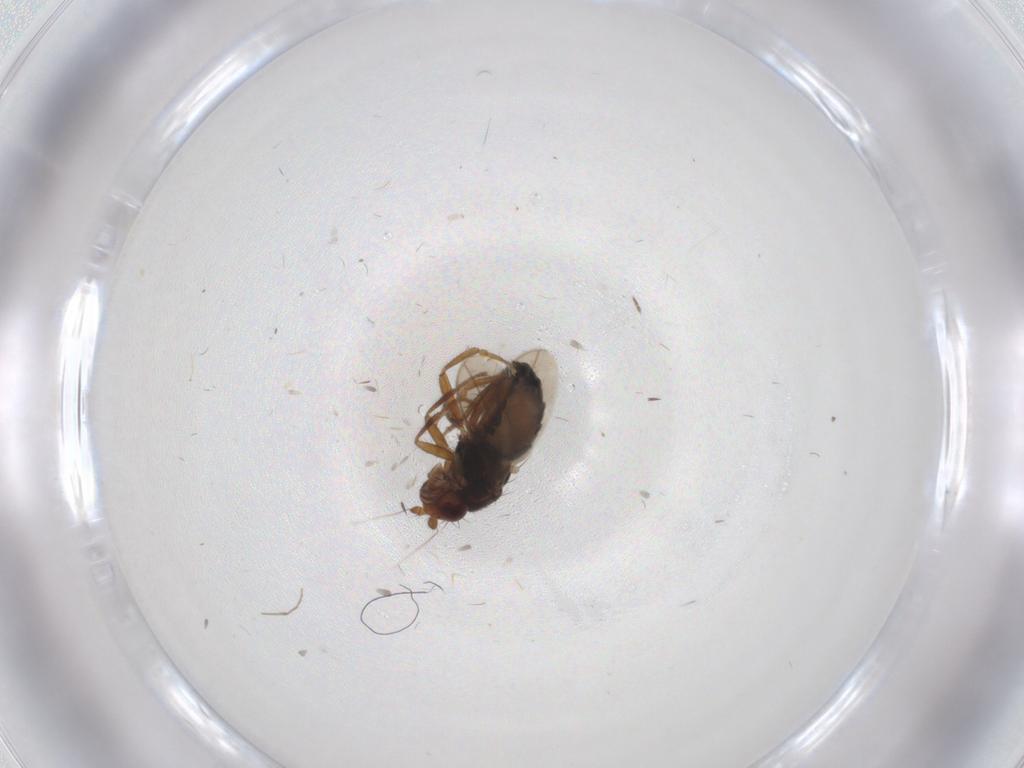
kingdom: Animalia
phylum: Arthropoda
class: Insecta
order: Diptera
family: Sphaeroceridae
